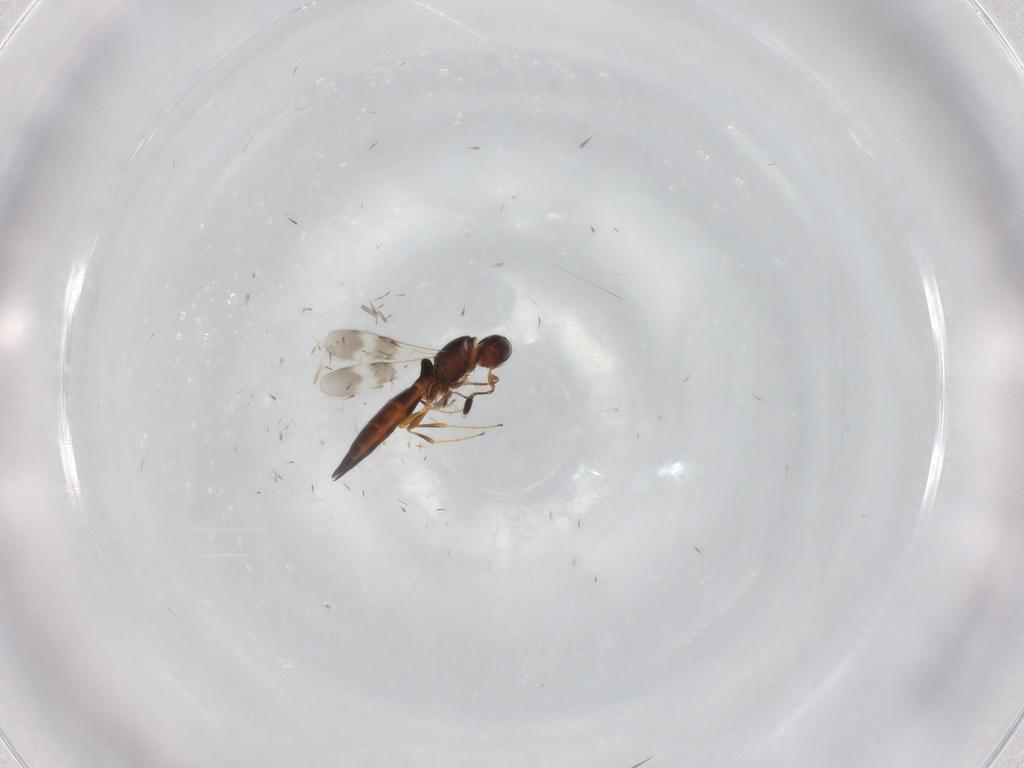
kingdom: Animalia
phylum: Arthropoda
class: Insecta
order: Hymenoptera
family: Scelionidae
